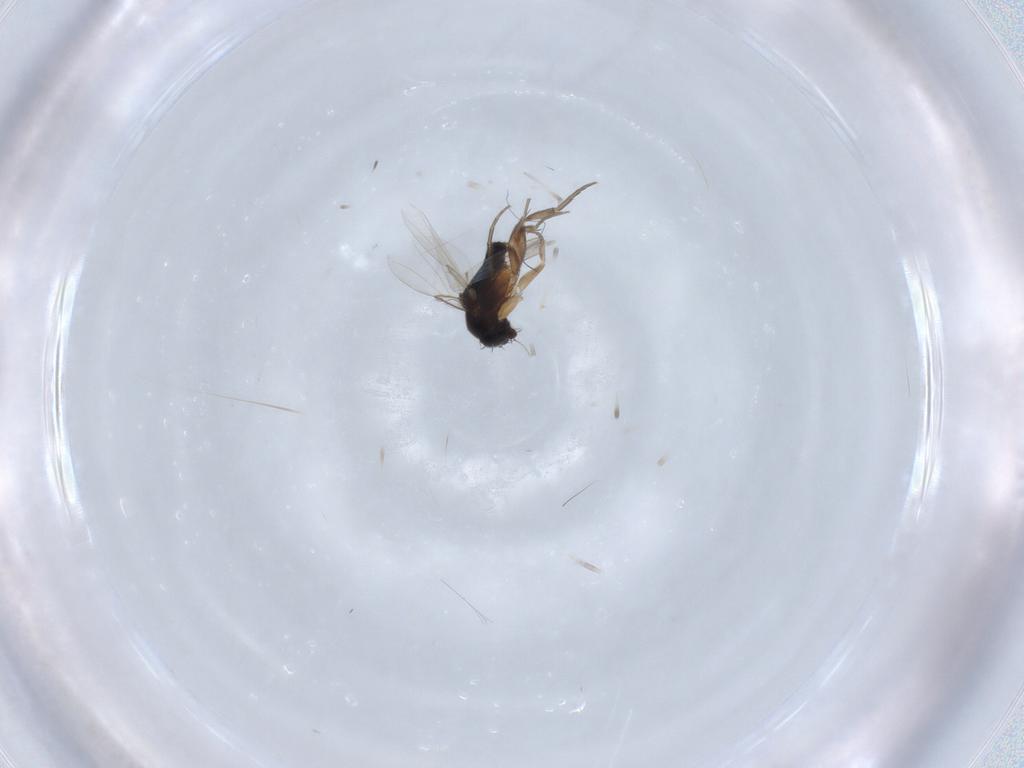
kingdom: Animalia
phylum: Arthropoda
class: Insecta
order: Diptera
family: Phoridae
